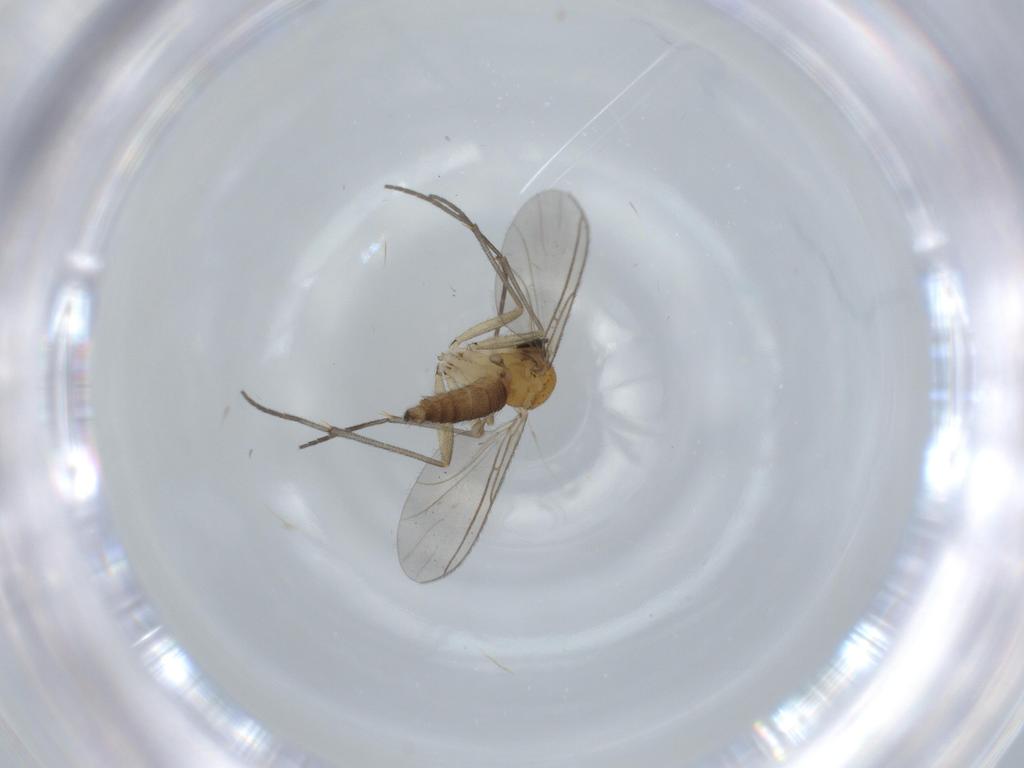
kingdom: Animalia
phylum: Arthropoda
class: Insecta
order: Diptera
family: Sciaridae
